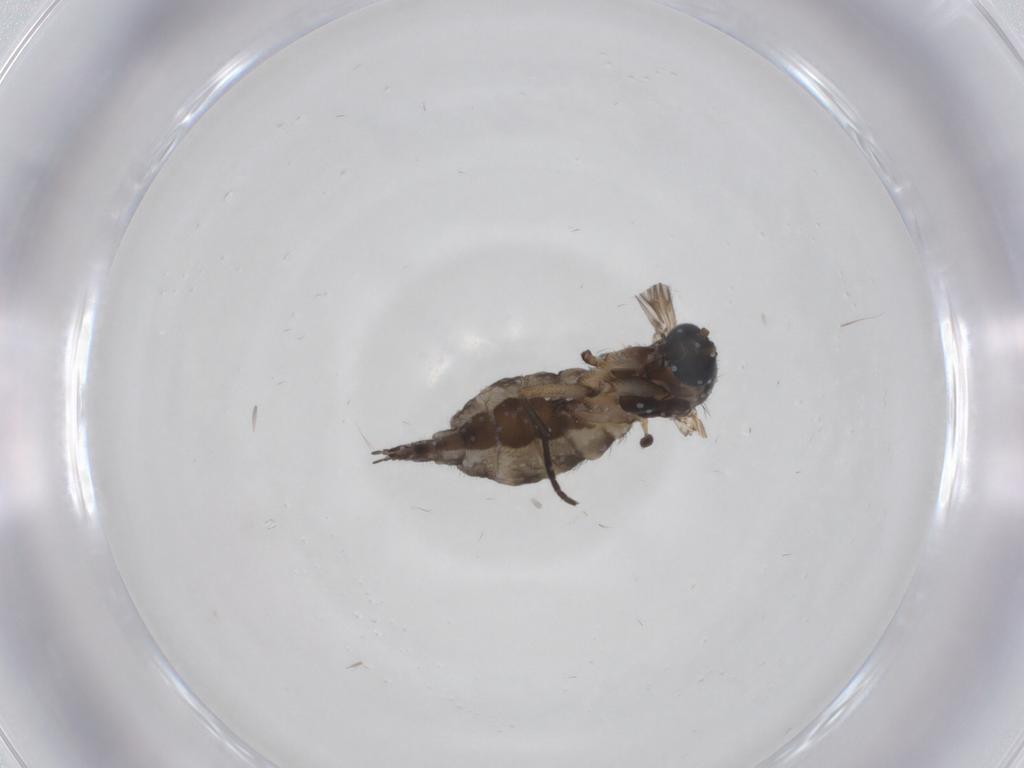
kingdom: Animalia
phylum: Arthropoda
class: Insecta
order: Diptera
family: Sciaridae
